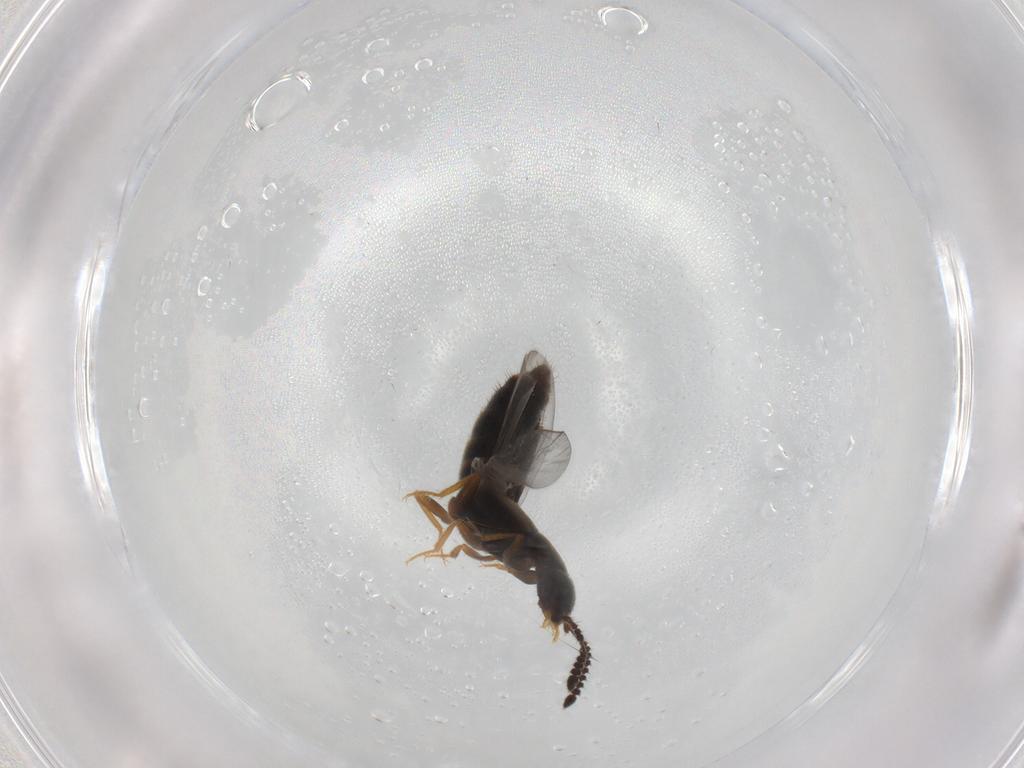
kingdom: Animalia
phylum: Arthropoda
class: Insecta
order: Coleoptera
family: Staphylinidae
